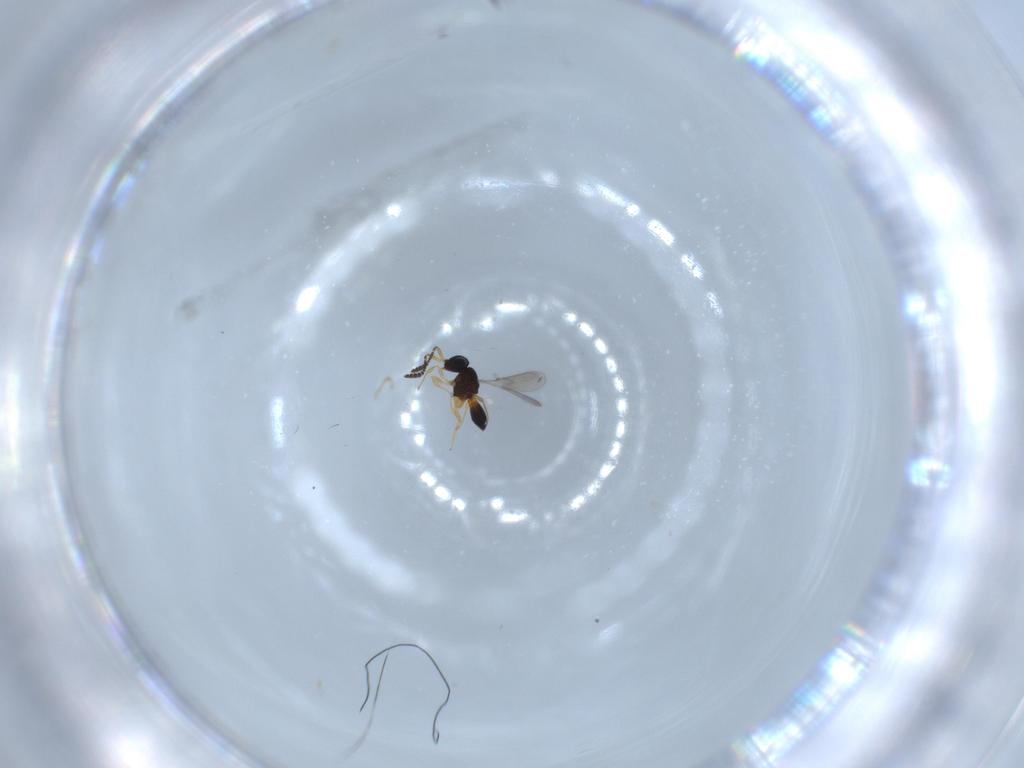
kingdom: Animalia
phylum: Arthropoda
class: Insecta
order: Hymenoptera
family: Scelionidae
